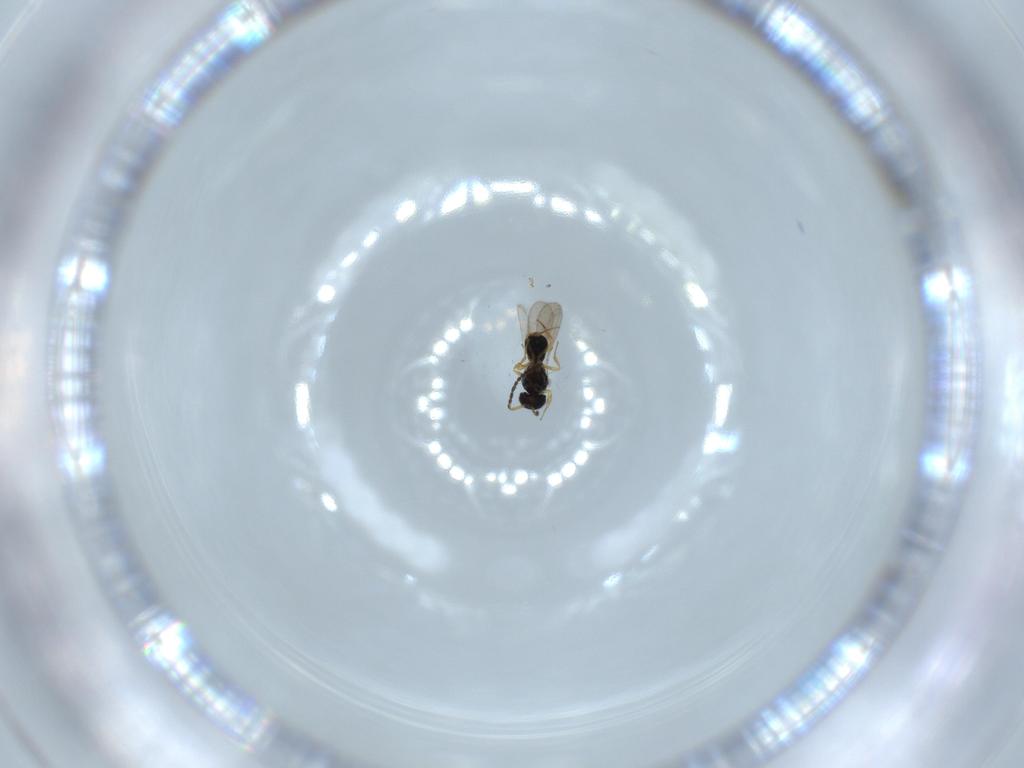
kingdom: Animalia
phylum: Arthropoda
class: Insecta
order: Hymenoptera
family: Scelionidae
